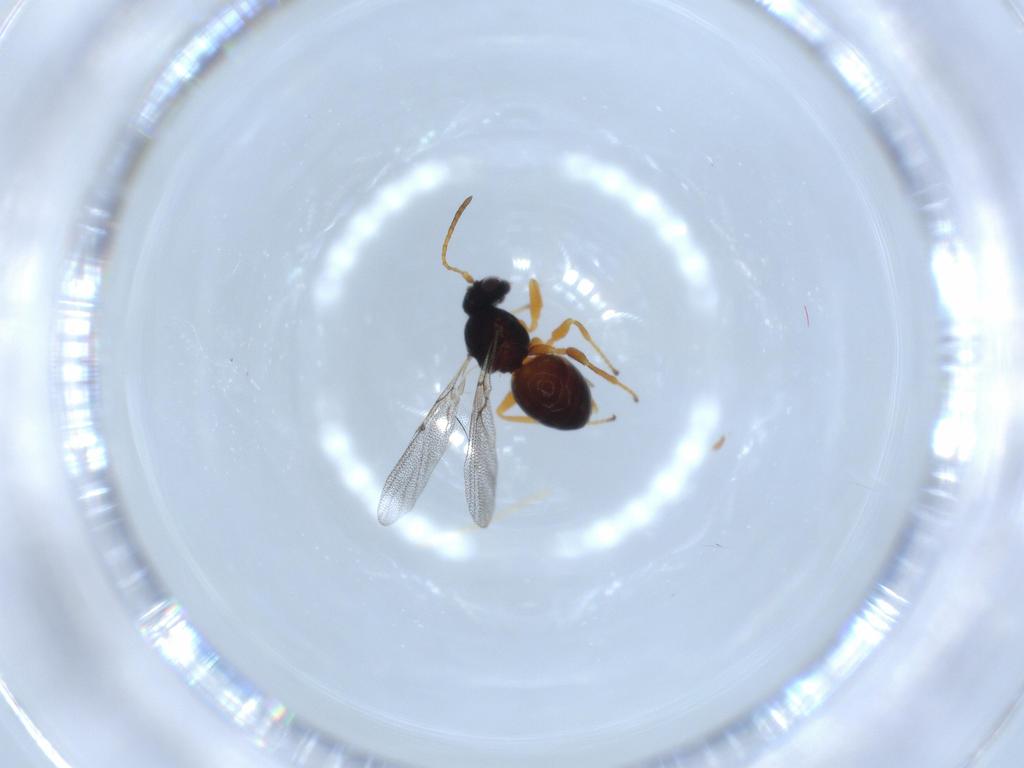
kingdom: Animalia
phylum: Arthropoda
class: Insecta
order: Hymenoptera
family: Cynipidae
